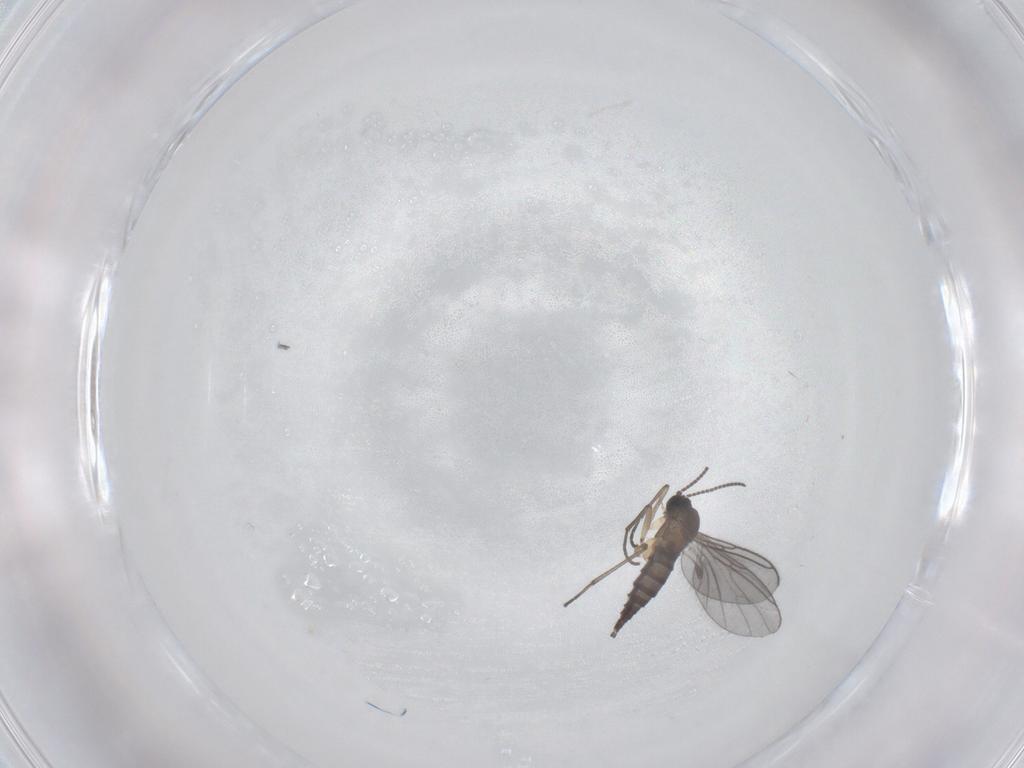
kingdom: Animalia
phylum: Arthropoda
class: Insecta
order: Diptera
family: Sciaridae
